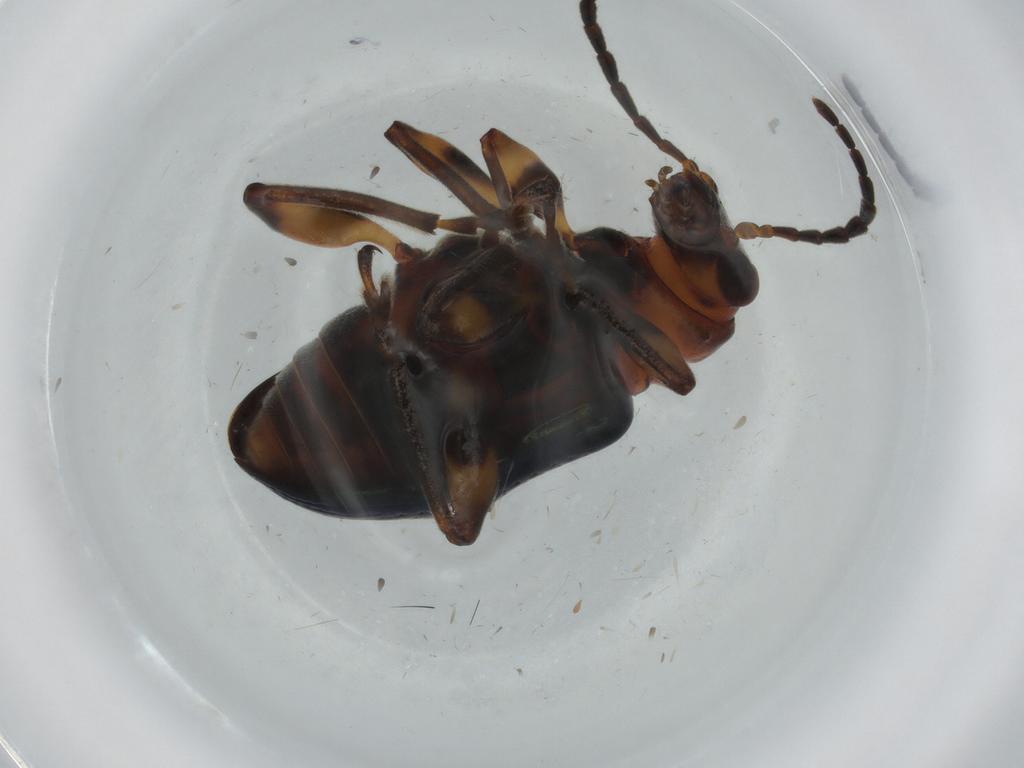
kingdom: Animalia
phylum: Arthropoda
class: Insecta
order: Coleoptera
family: Chrysomelidae
